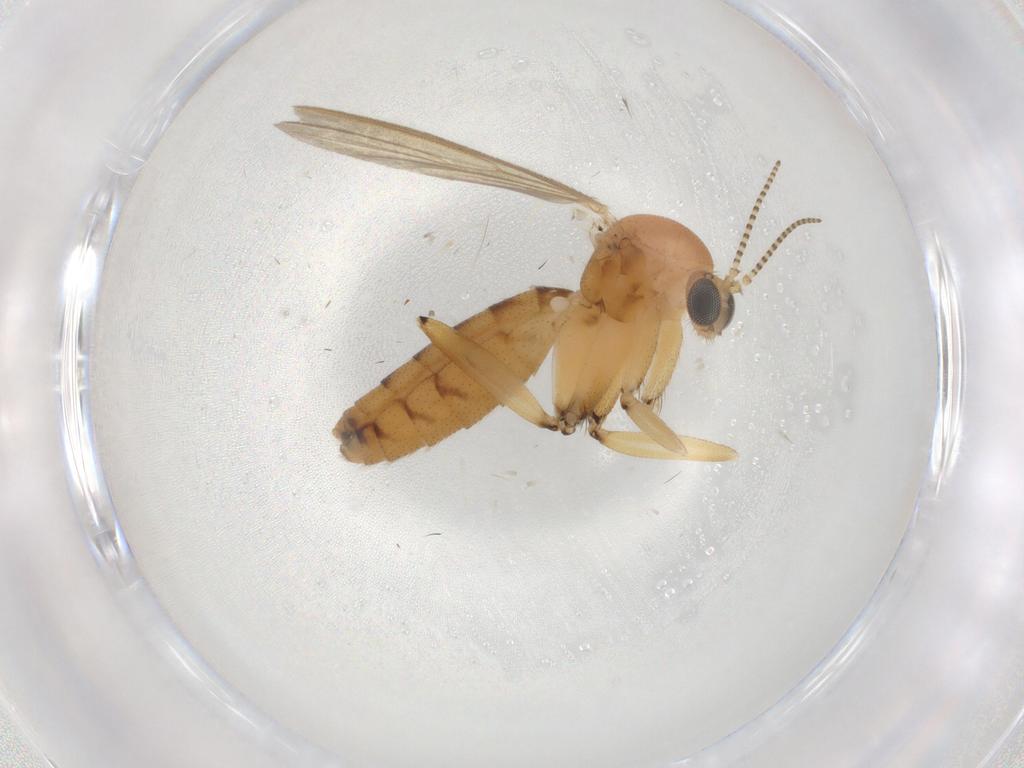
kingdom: Animalia
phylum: Arthropoda
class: Insecta
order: Diptera
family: Mycetophilidae
